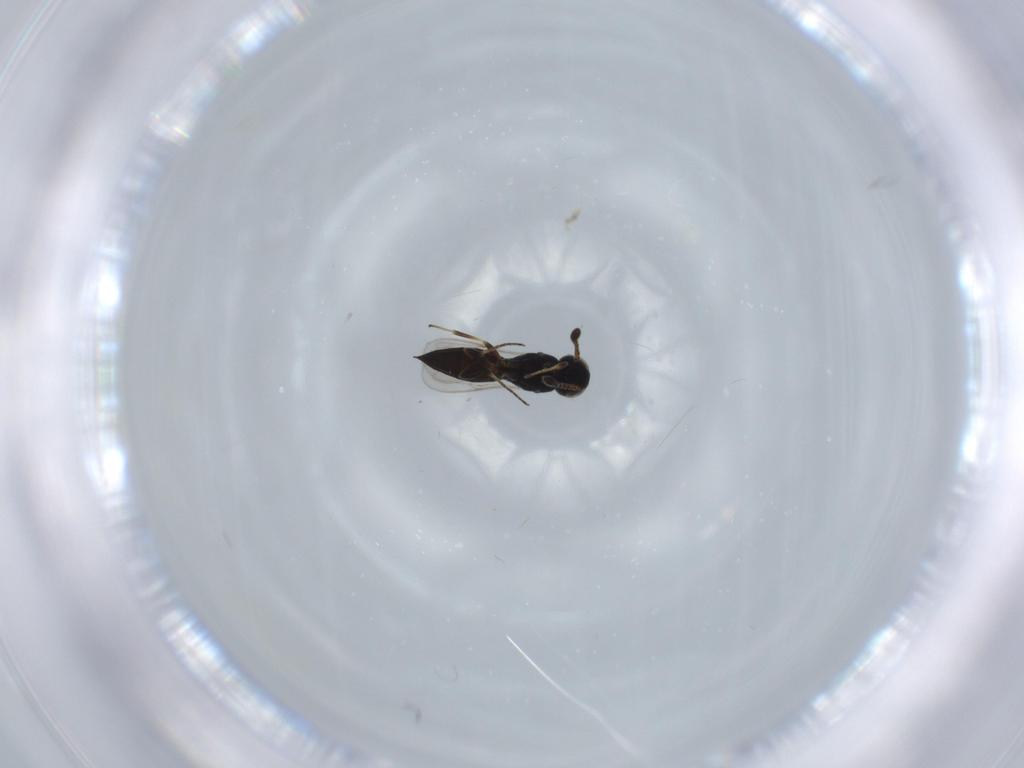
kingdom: Animalia
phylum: Arthropoda
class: Insecta
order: Hymenoptera
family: Scelionidae
